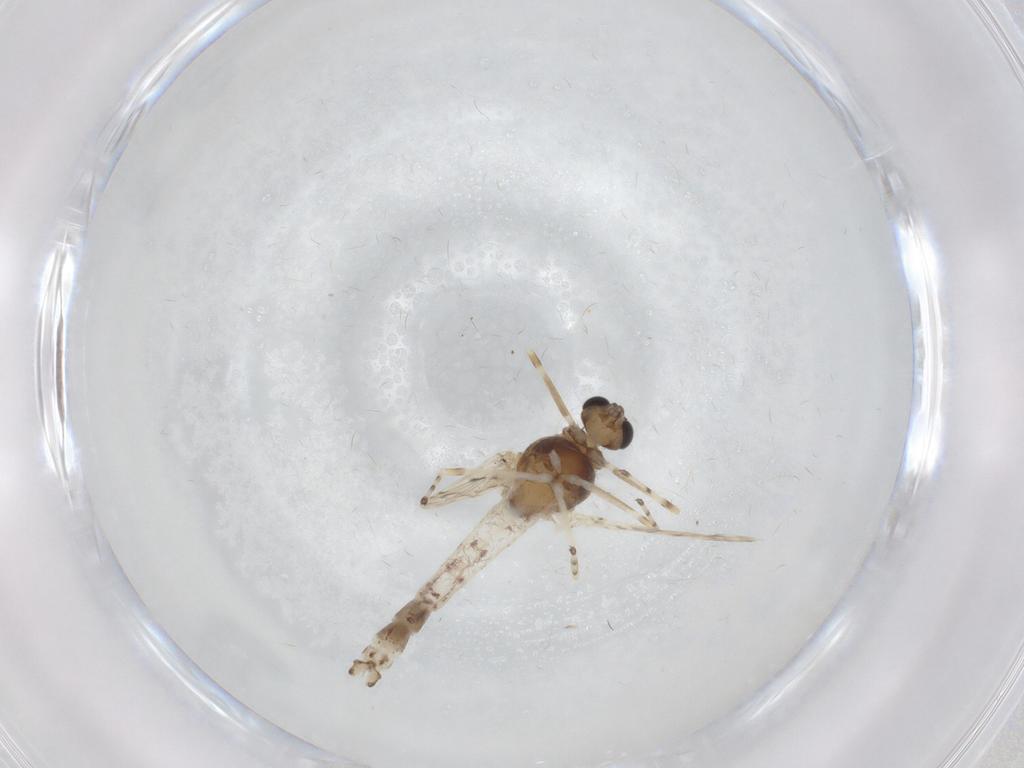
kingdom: Animalia
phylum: Arthropoda
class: Insecta
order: Diptera
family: Chironomidae
